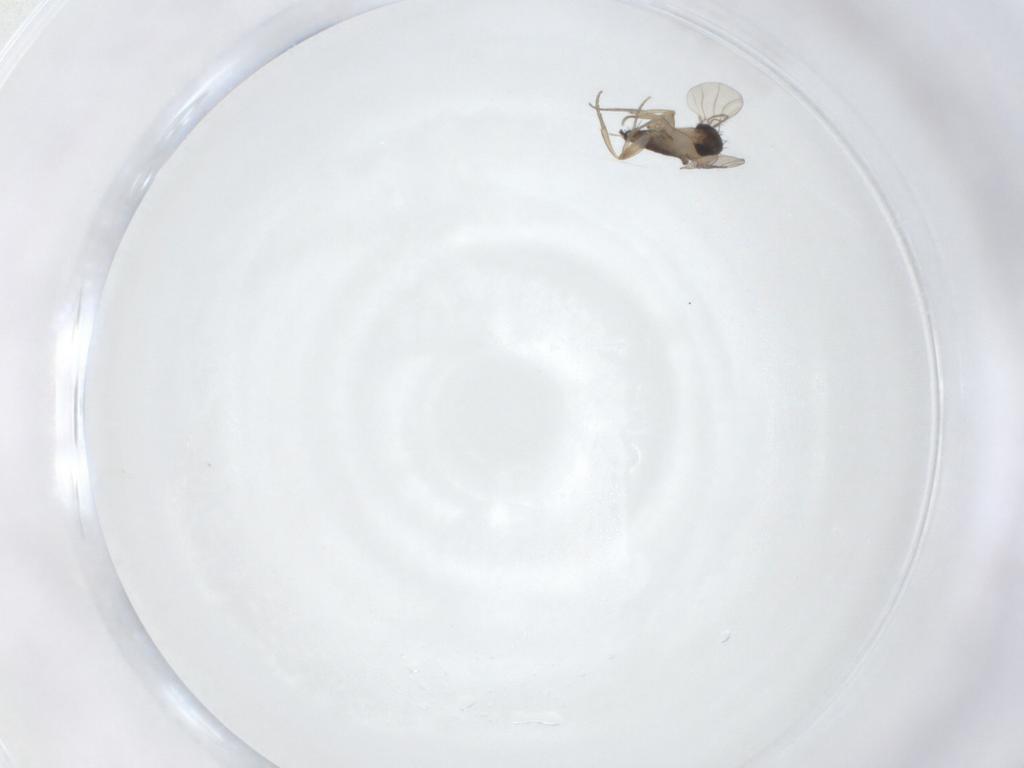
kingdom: Animalia
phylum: Arthropoda
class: Insecta
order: Diptera
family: Phoridae
